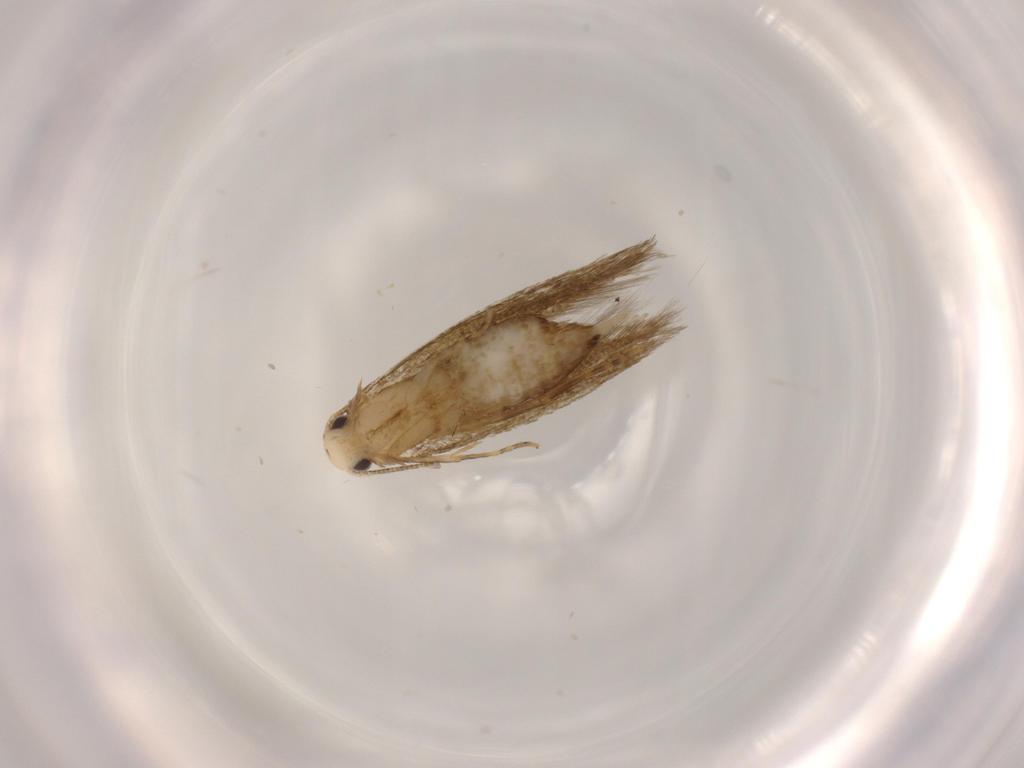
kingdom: Animalia
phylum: Arthropoda
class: Insecta
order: Lepidoptera
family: Tineidae
